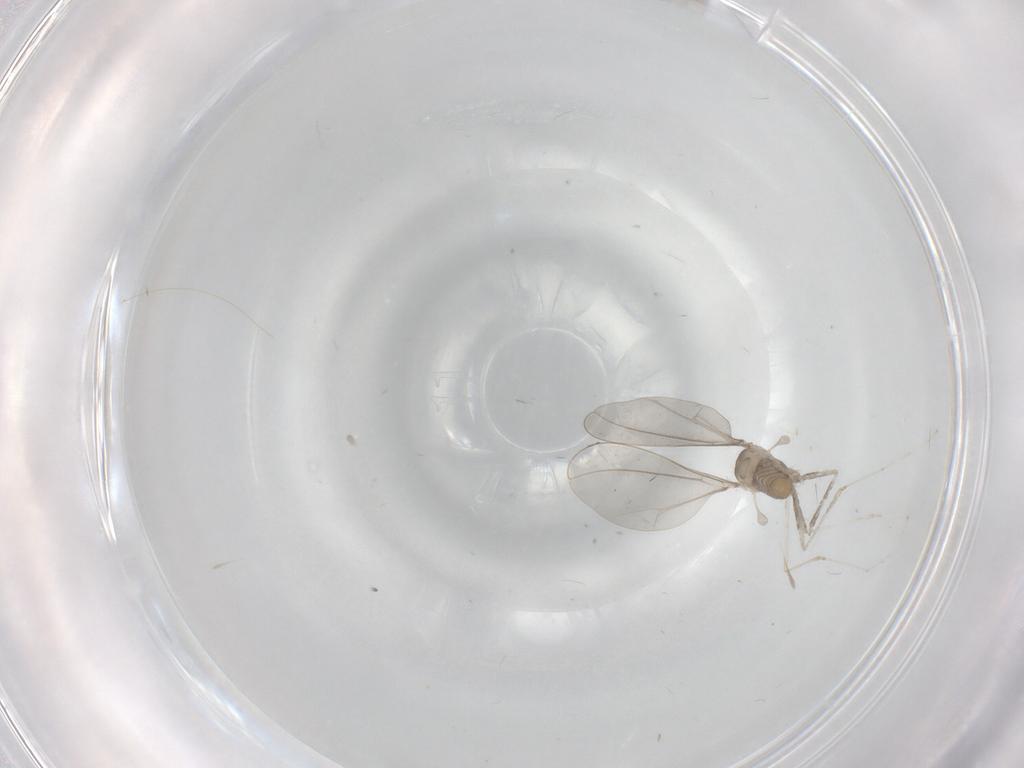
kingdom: Animalia
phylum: Arthropoda
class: Insecta
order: Diptera
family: Cecidomyiidae
